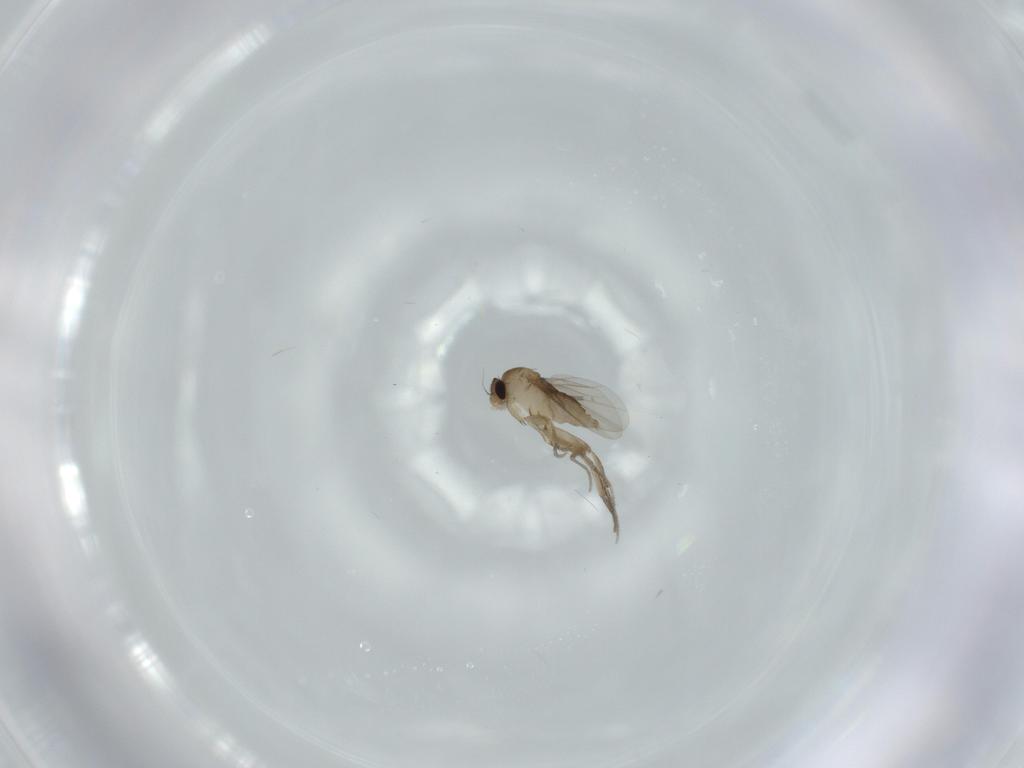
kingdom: Animalia
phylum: Arthropoda
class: Insecta
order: Diptera
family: Phoridae
